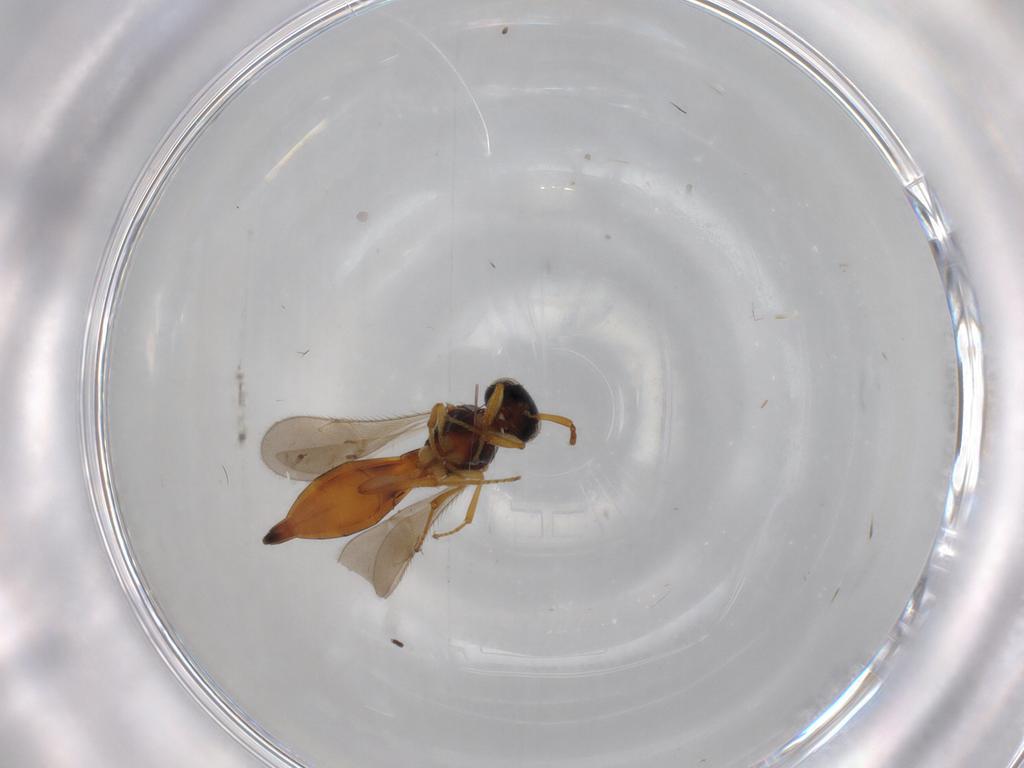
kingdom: Animalia
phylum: Arthropoda
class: Insecta
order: Hymenoptera
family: Scelionidae
